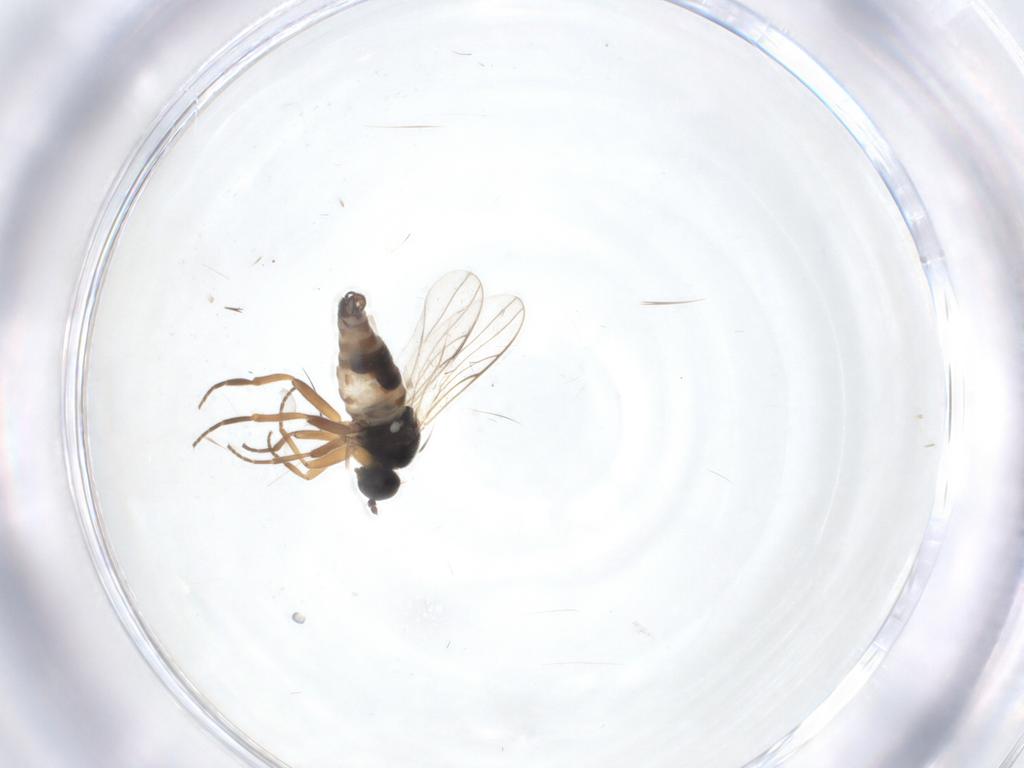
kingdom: Animalia
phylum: Arthropoda
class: Insecta
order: Diptera
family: Hybotidae
